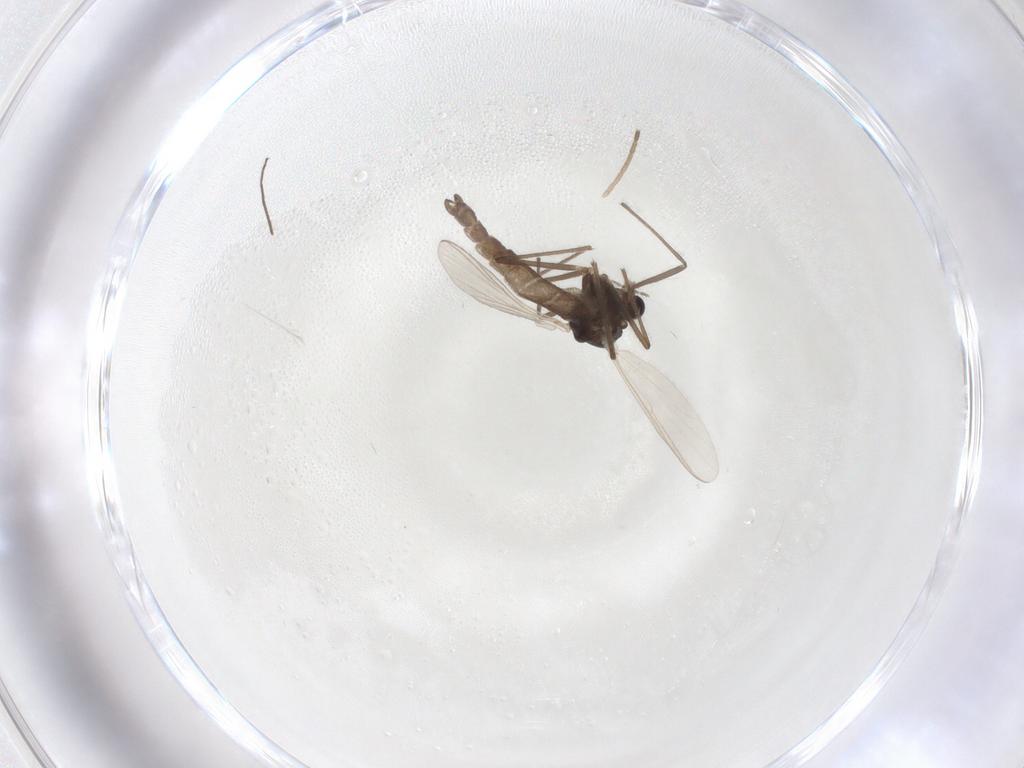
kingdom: Animalia
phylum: Arthropoda
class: Insecta
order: Diptera
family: Chironomidae
